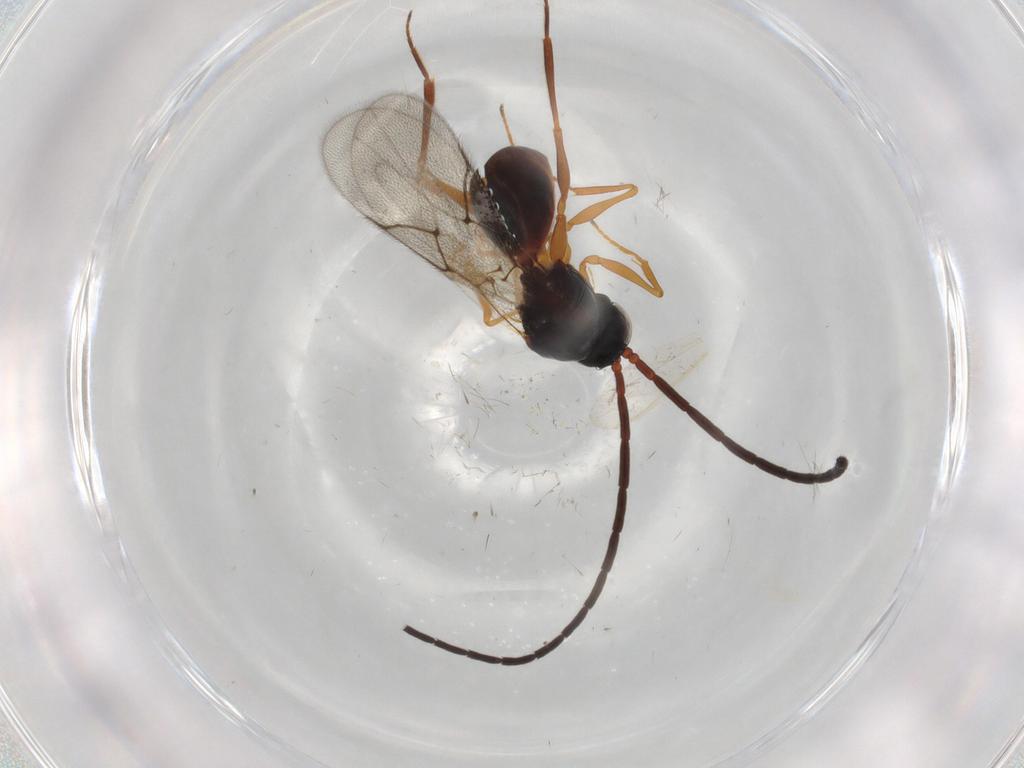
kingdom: Animalia
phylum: Arthropoda
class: Insecta
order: Hymenoptera
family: Figitidae
